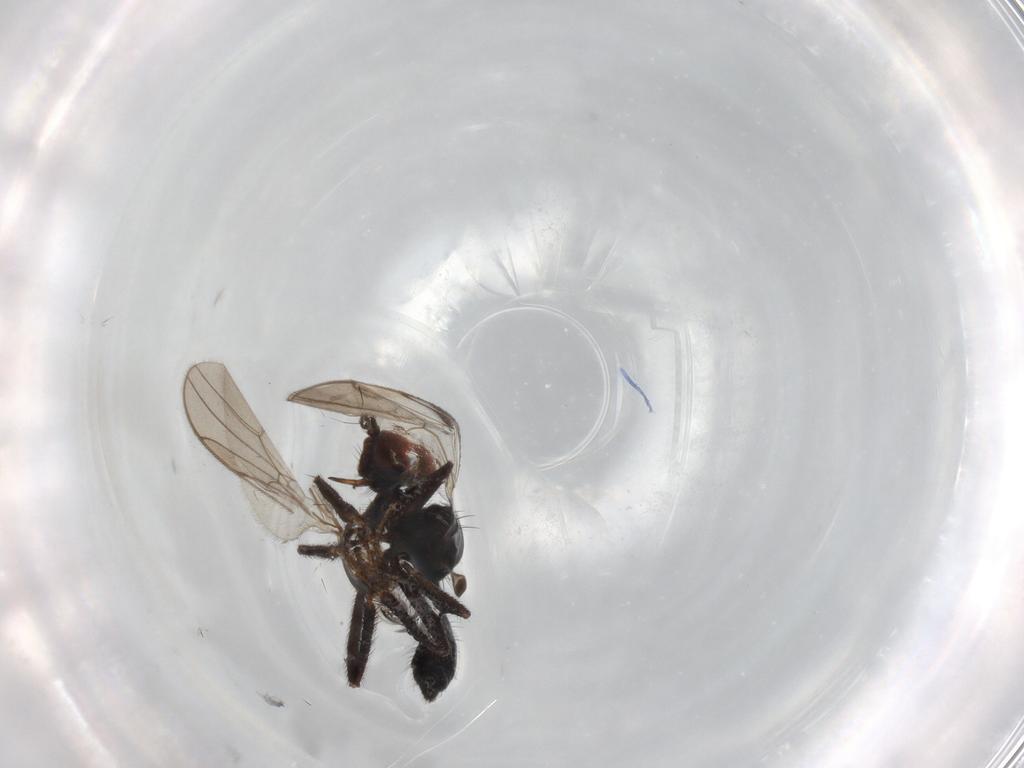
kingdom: Animalia
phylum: Arthropoda
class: Insecta
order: Diptera
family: Hybotidae
